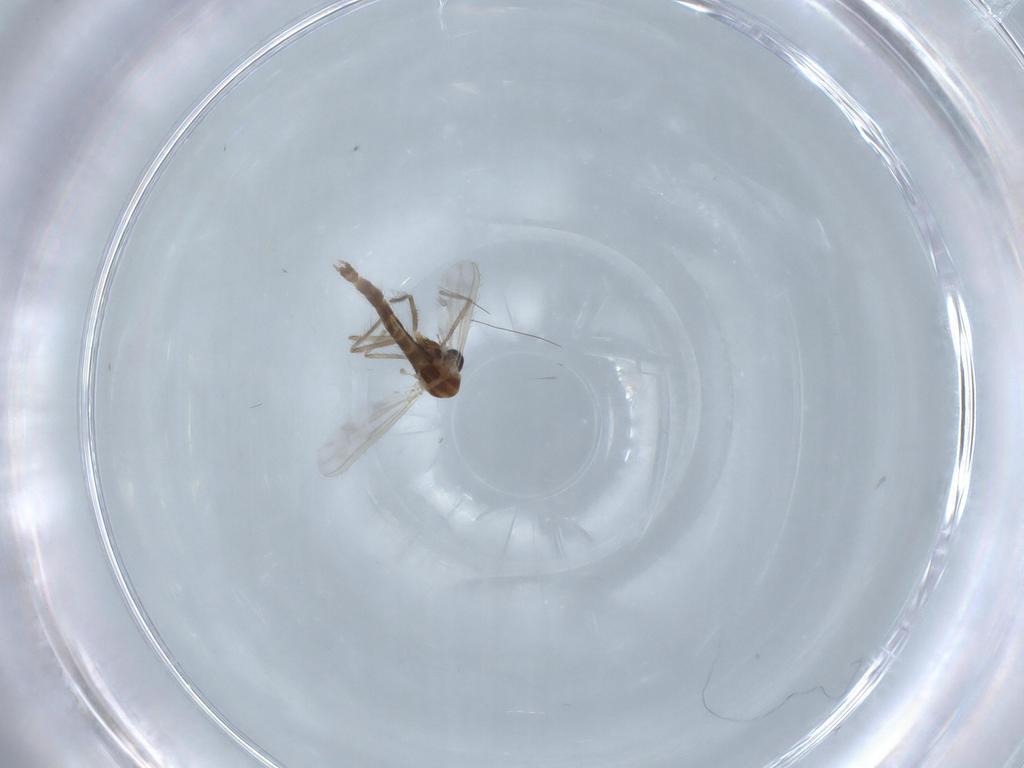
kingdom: Animalia
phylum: Arthropoda
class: Insecta
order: Diptera
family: Chironomidae
